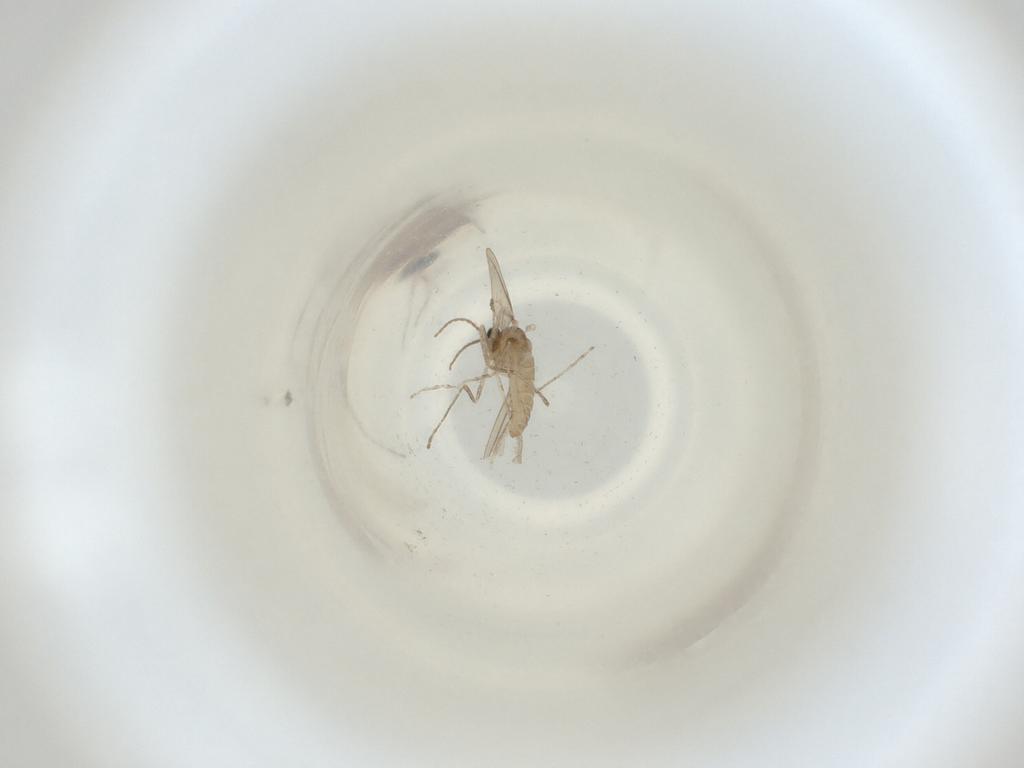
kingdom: Animalia
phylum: Arthropoda
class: Insecta
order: Diptera
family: Cecidomyiidae
